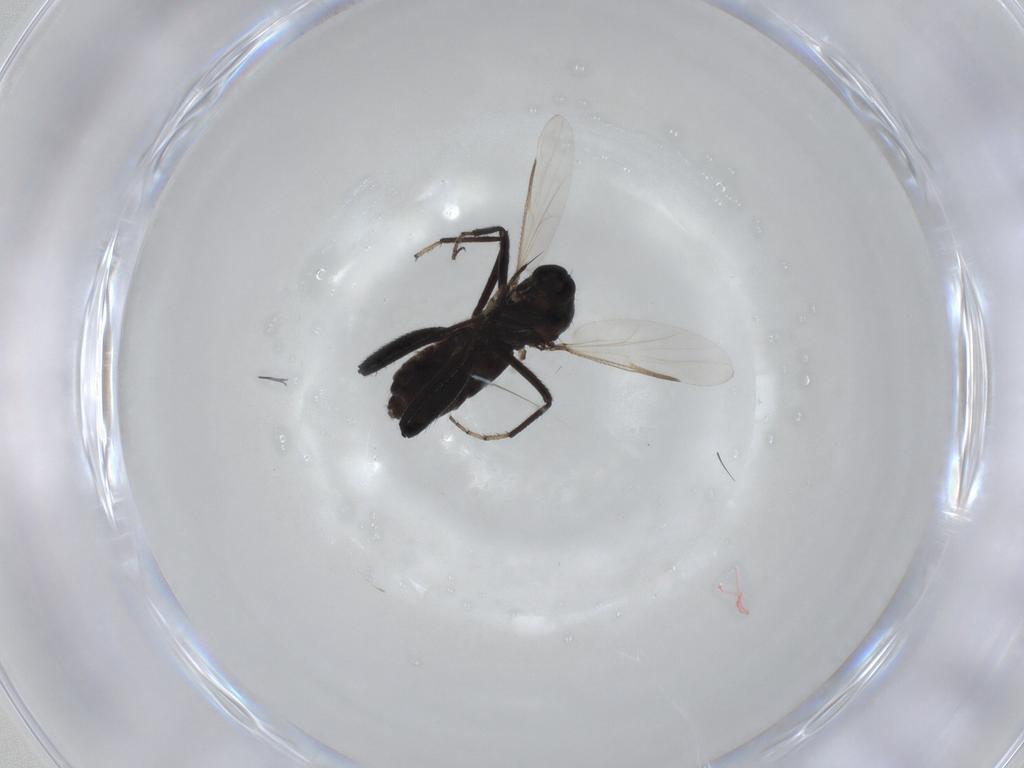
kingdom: Animalia
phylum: Arthropoda
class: Insecta
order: Diptera
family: Ceratopogonidae
